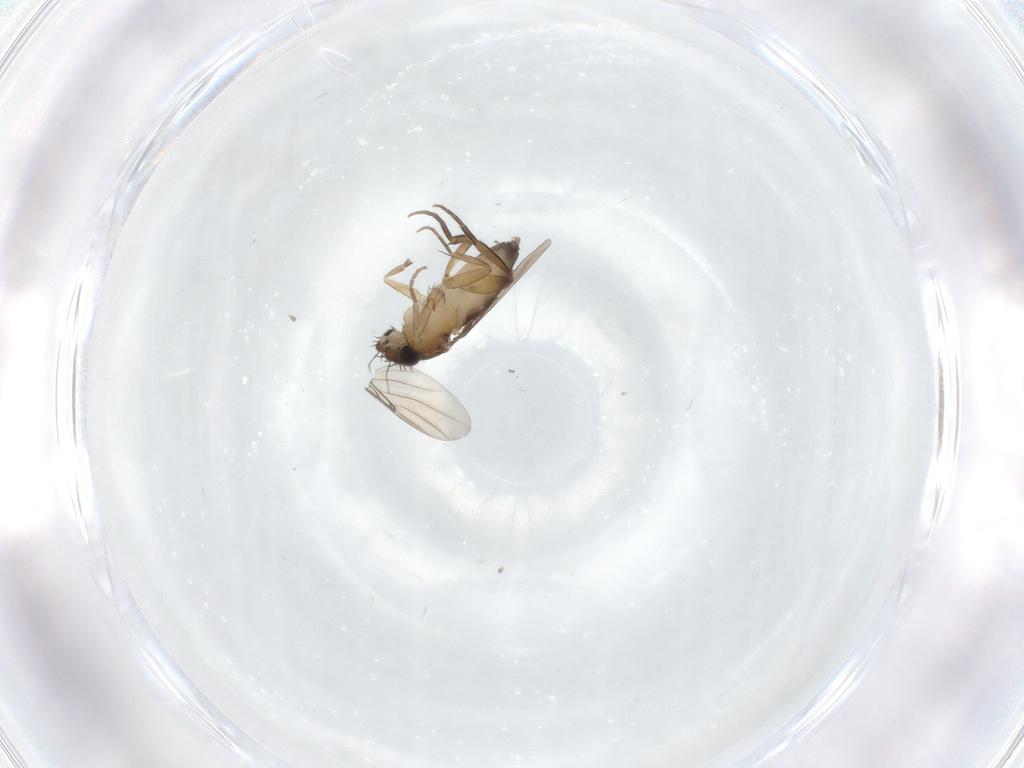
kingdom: Animalia
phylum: Arthropoda
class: Insecta
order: Diptera
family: Phoridae
